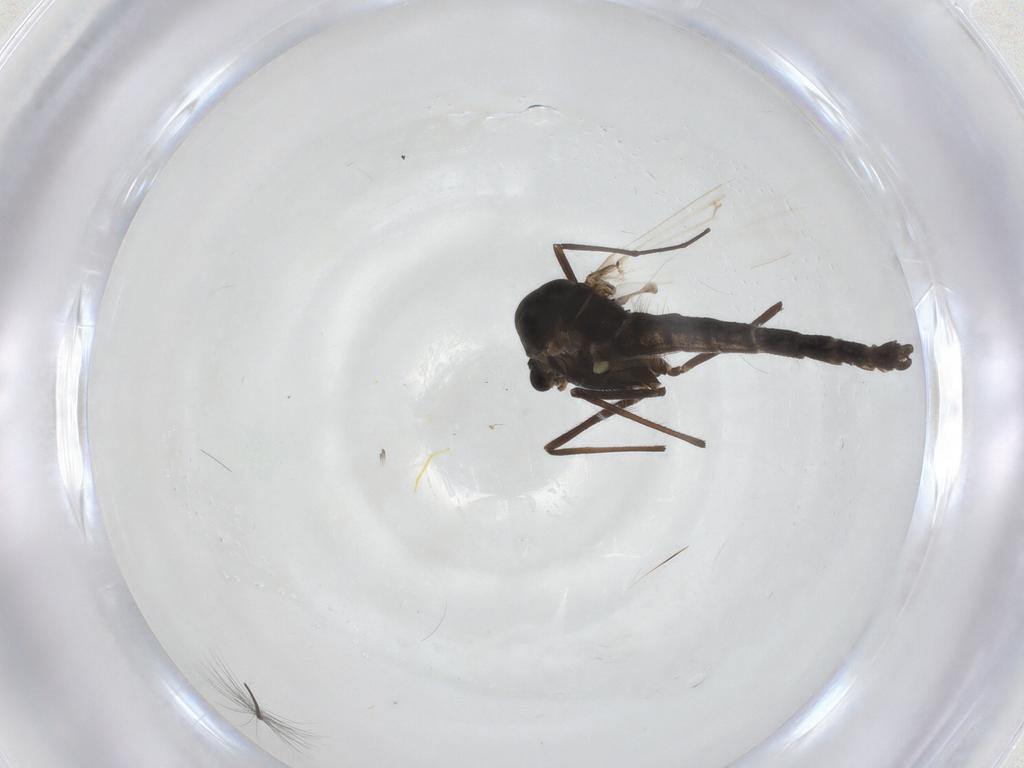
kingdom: Animalia
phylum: Arthropoda
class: Insecta
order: Diptera
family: Chironomidae
